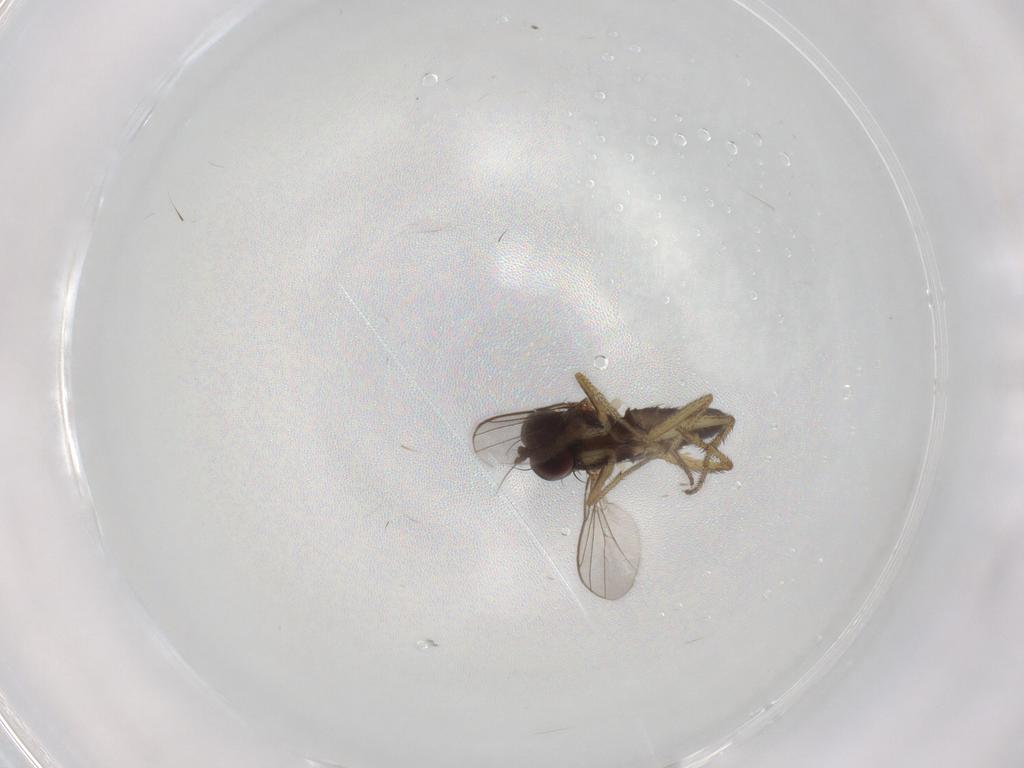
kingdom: Animalia
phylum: Arthropoda
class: Insecta
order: Diptera
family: Dolichopodidae
